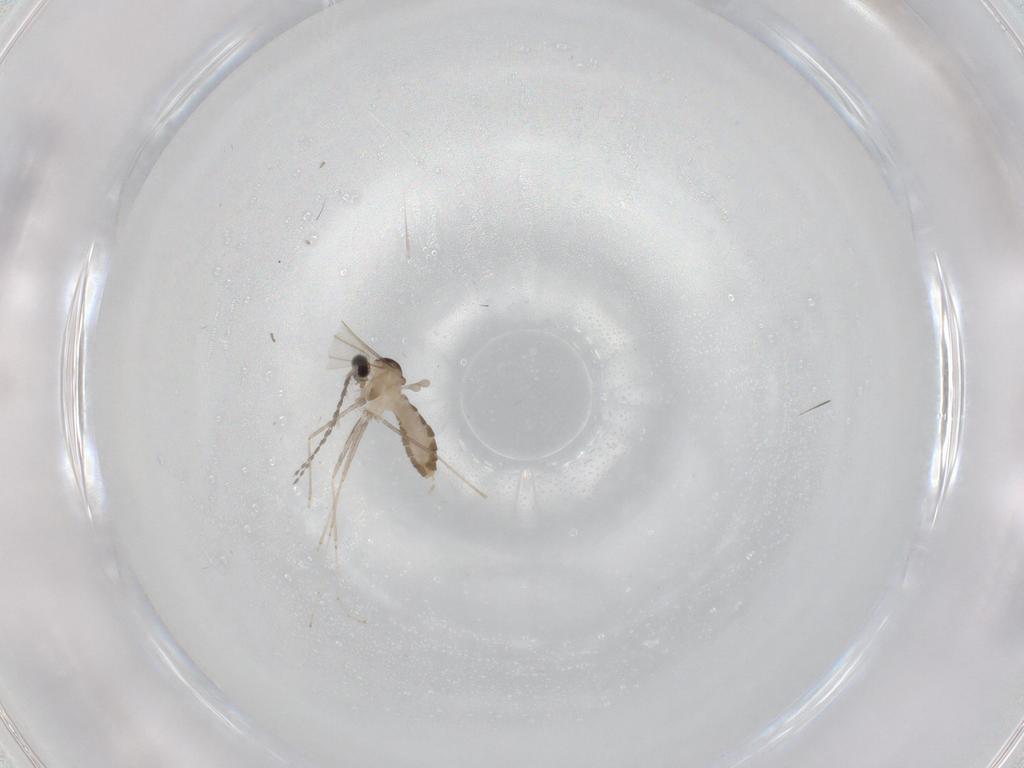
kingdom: Animalia
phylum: Arthropoda
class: Insecta
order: Diptera
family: Cecidomyiidae
